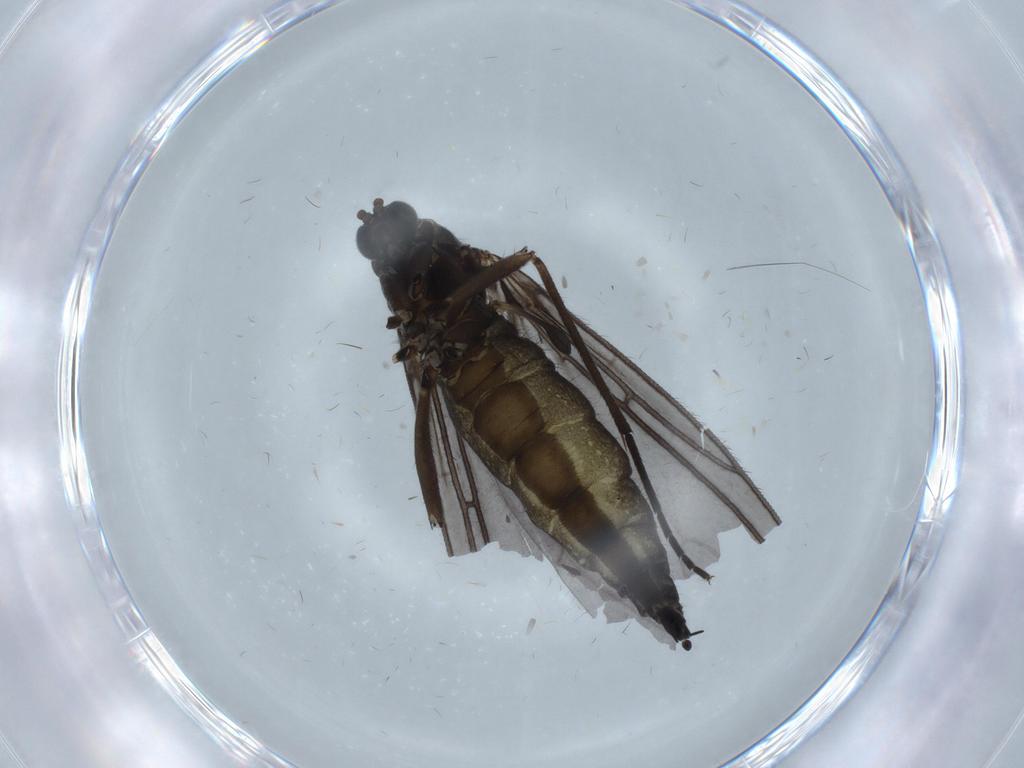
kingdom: Animalia
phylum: Arthropoda
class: Insecta
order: Diptera
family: Sciaridae
